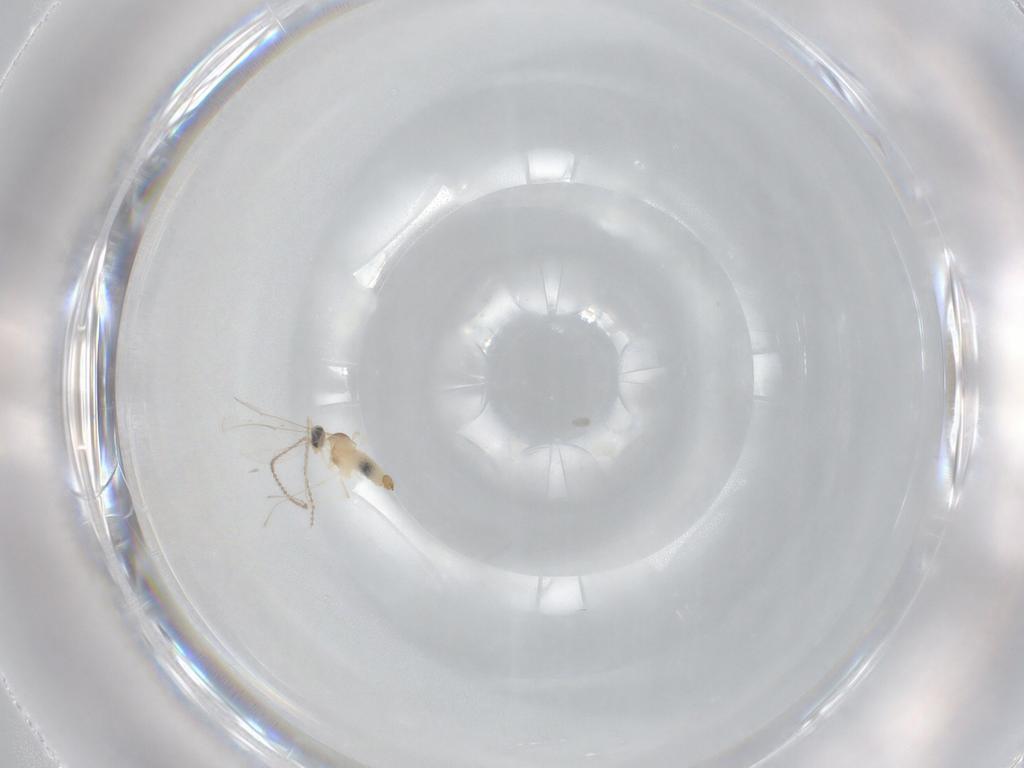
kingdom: Animalia
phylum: Arthropoda
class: Insecta
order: Diptera
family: Cecidomyiidae
